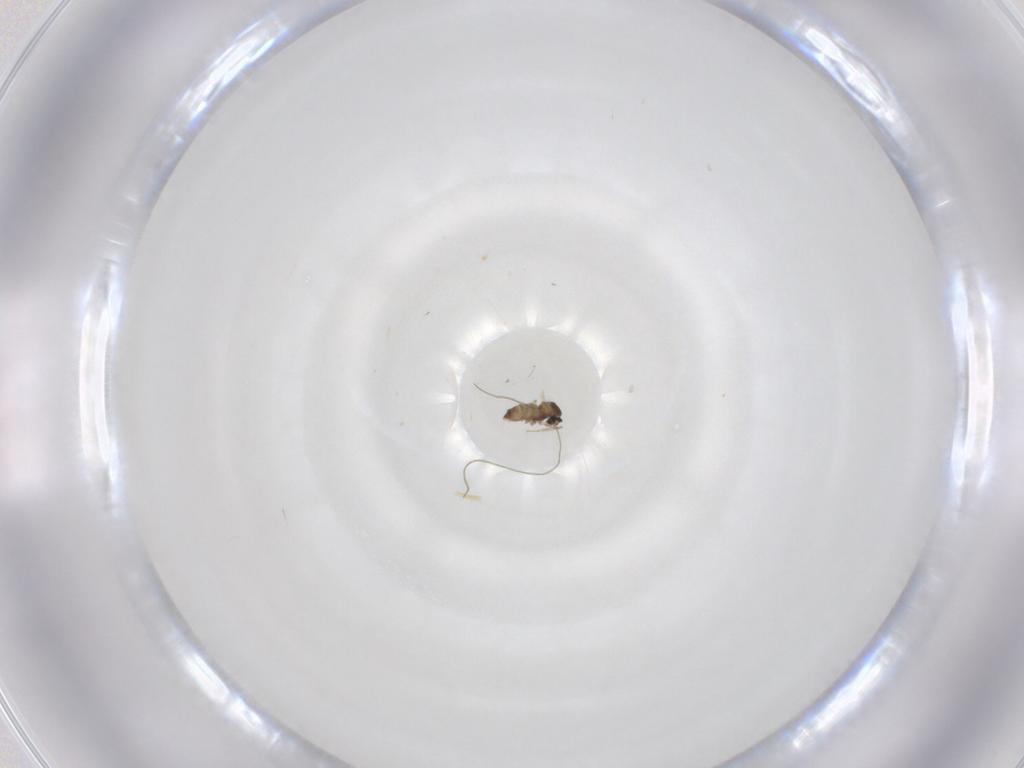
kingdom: Animalia
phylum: Arthropoda
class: Insecta
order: Diptera
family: Cecidomyiidae
